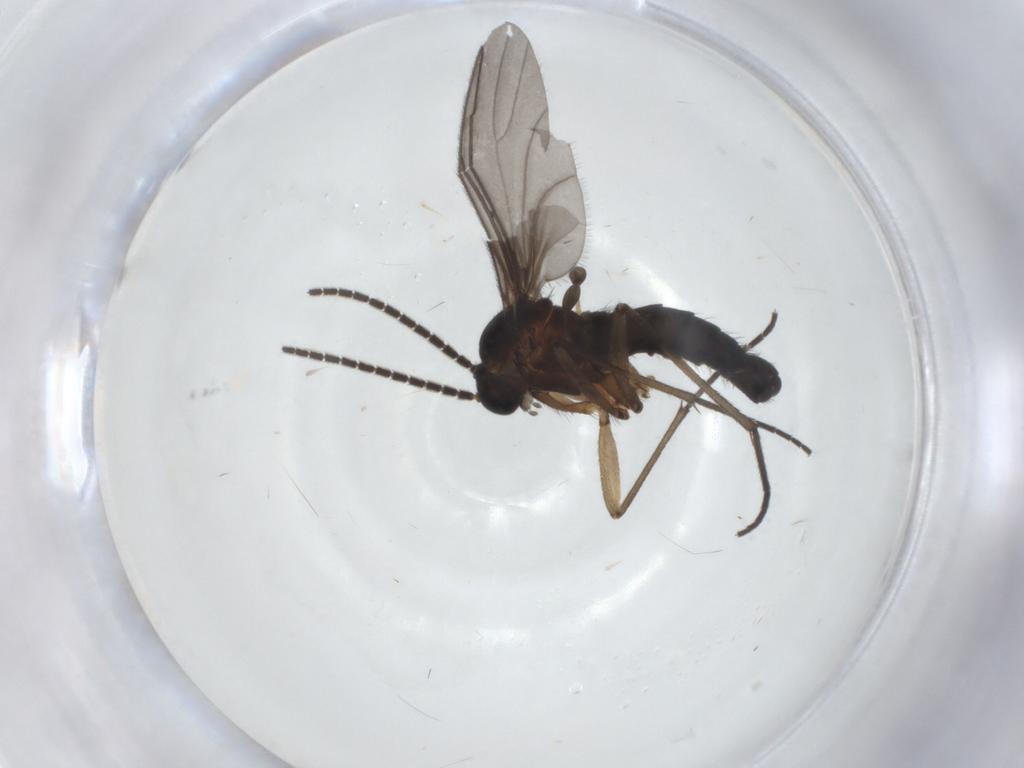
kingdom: Animalia
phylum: Arthropoda
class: Insecta
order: Diptera
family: Sciaridae
